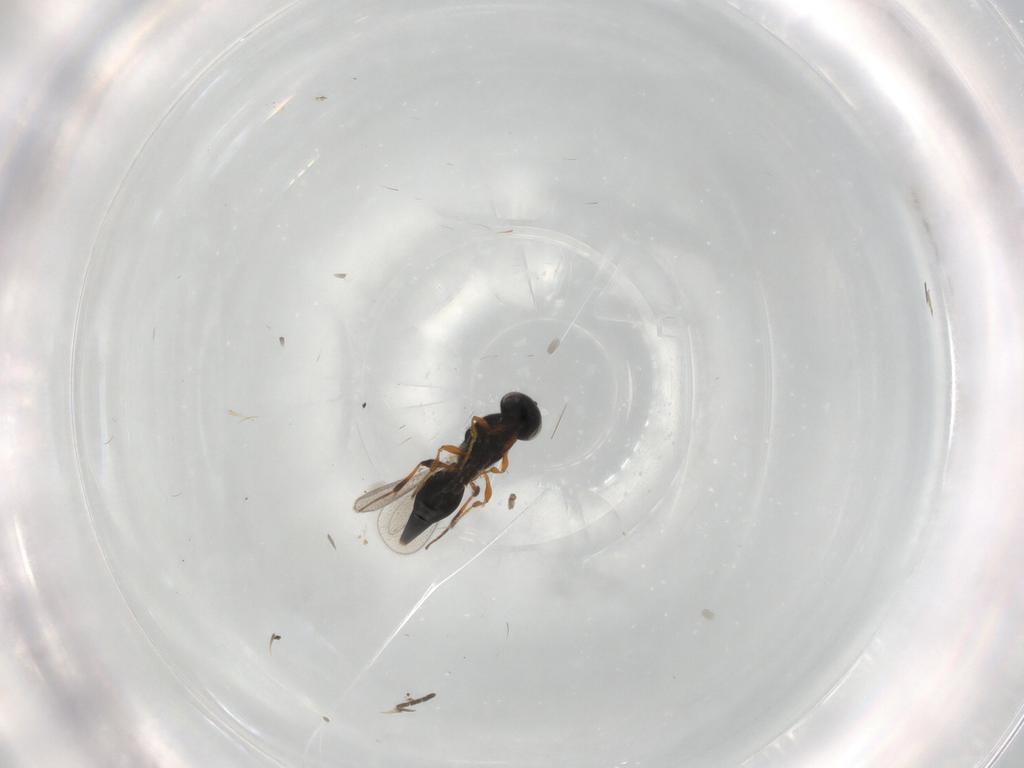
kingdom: Animalia
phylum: Arthropoda
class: Insecta
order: Hymenoptera
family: Platygastridae
